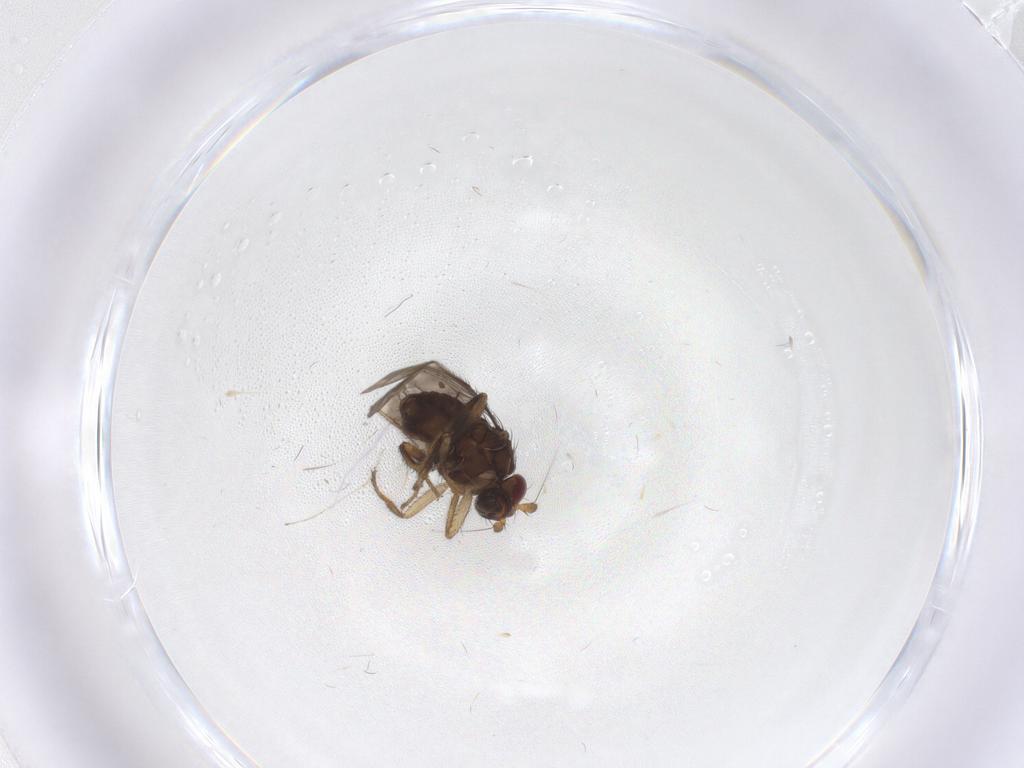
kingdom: Animalia
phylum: Arthropoda
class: Insecta
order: Diptera
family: Sphaeroceridae
